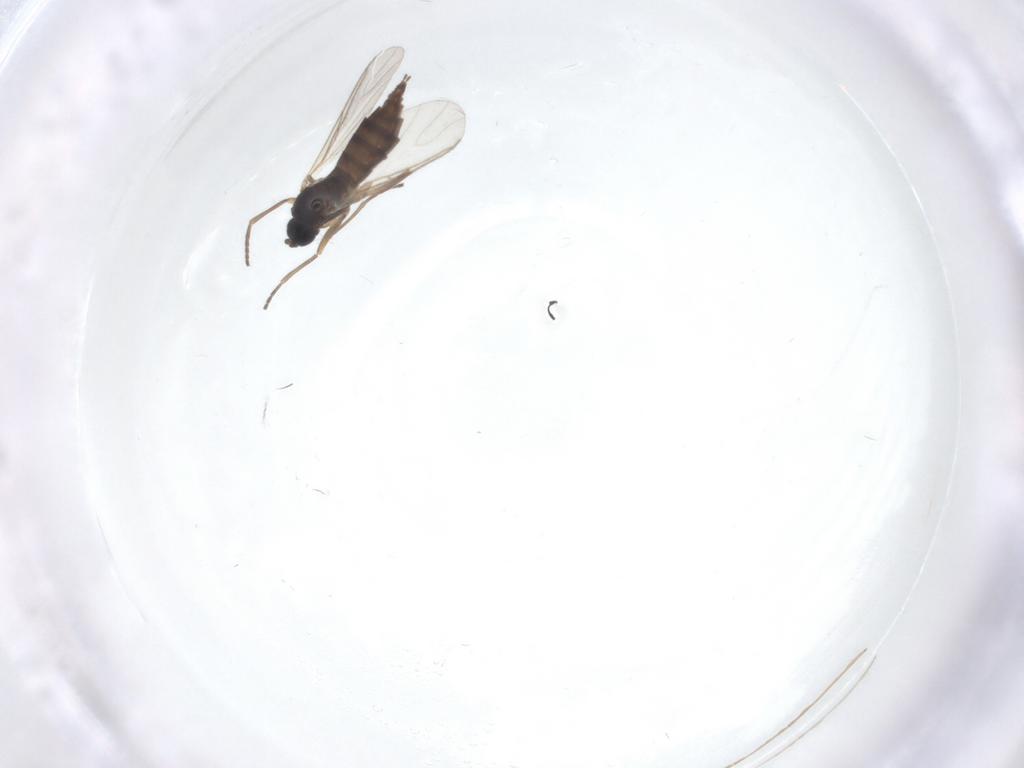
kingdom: Animalia
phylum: Arthropoda
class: Insecta
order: Diptera
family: Sciaridae
